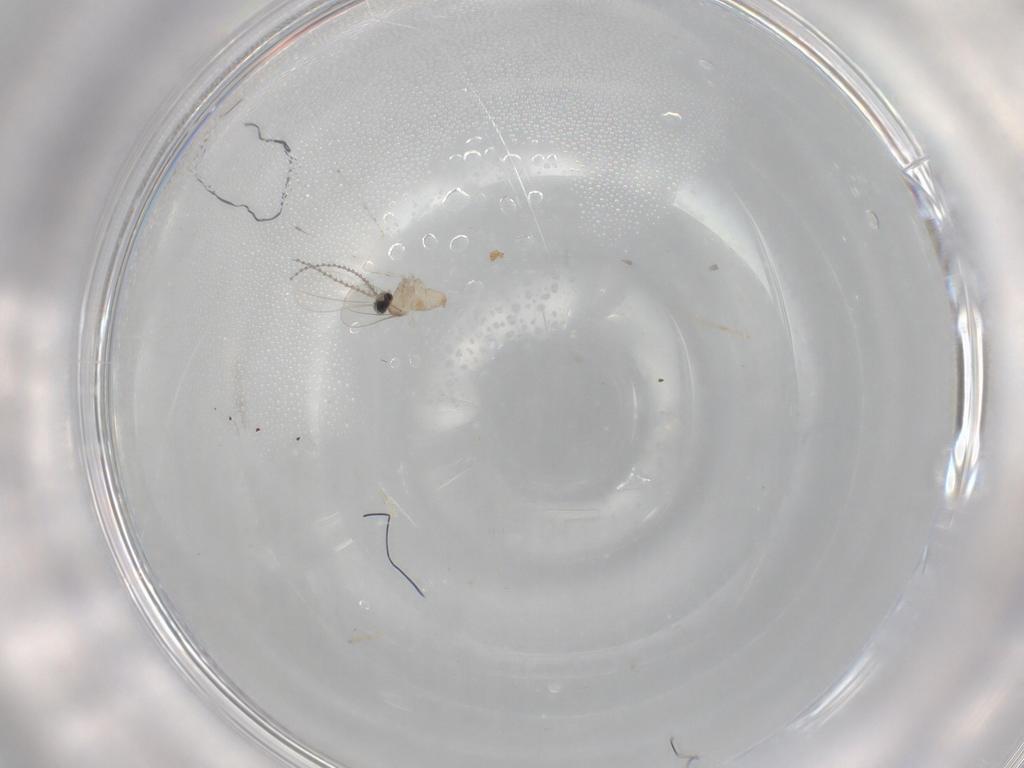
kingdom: Animalia
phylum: Arthropoda
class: Insecta
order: Diptera
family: Cecidomyiidae
